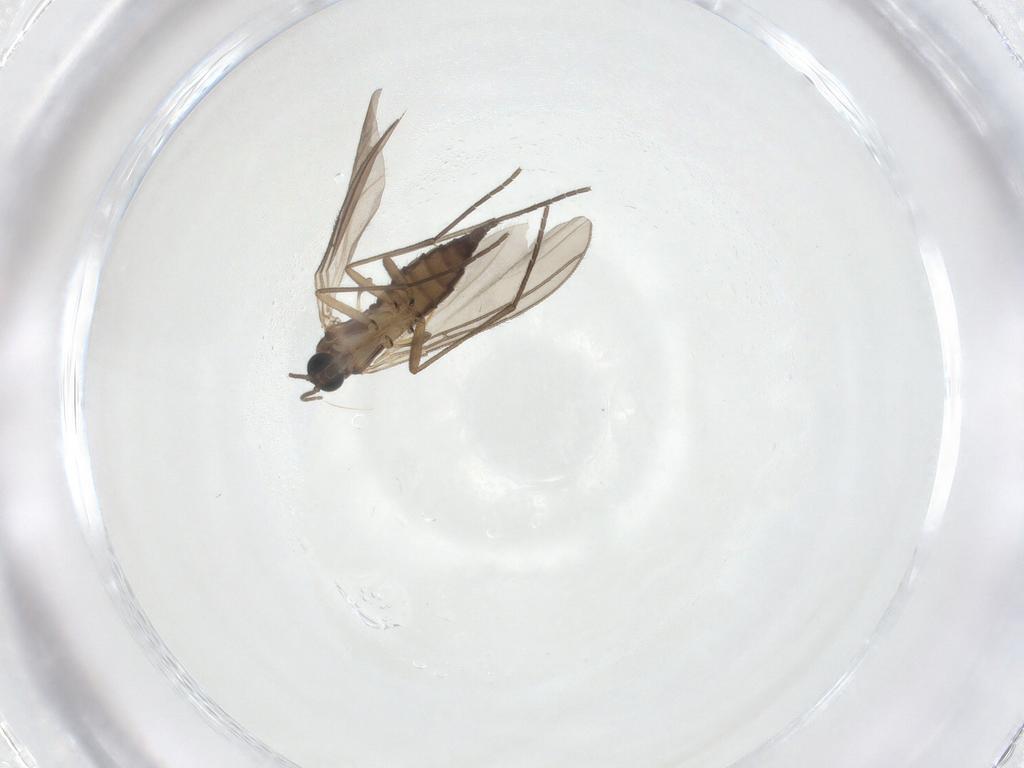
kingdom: Animalia
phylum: Arthropoda
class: Insecta
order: Diptera
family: Sciaridae
